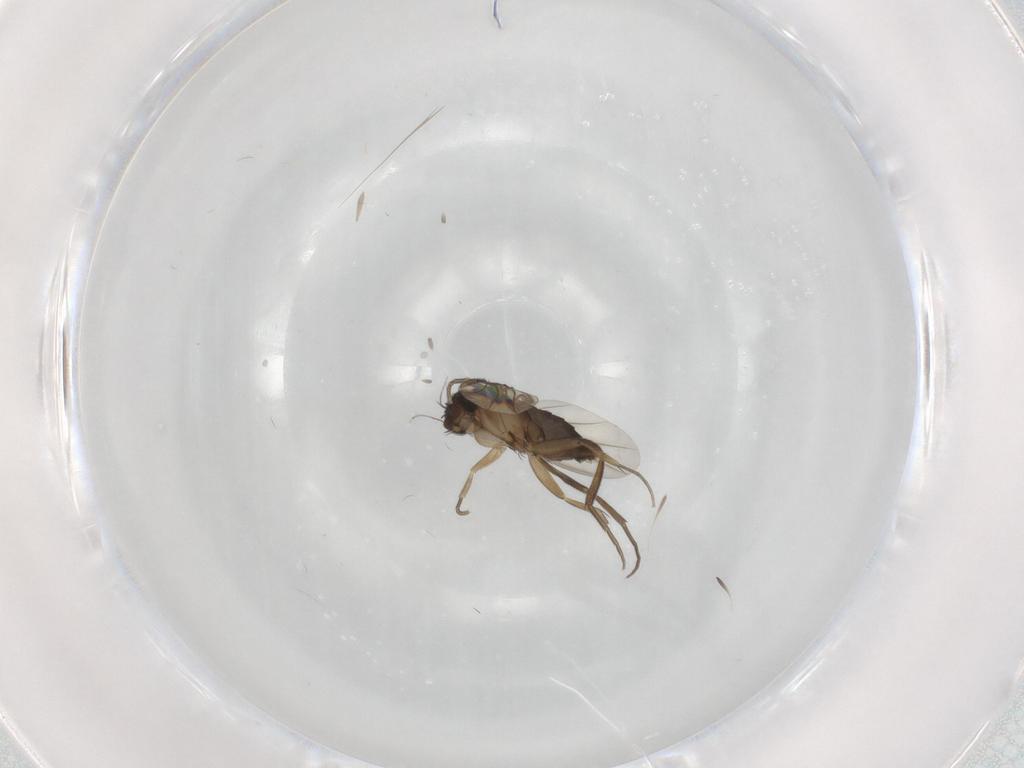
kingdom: Animalia
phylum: Arthropoda
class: Insecta
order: Diptera
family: Phoridae
